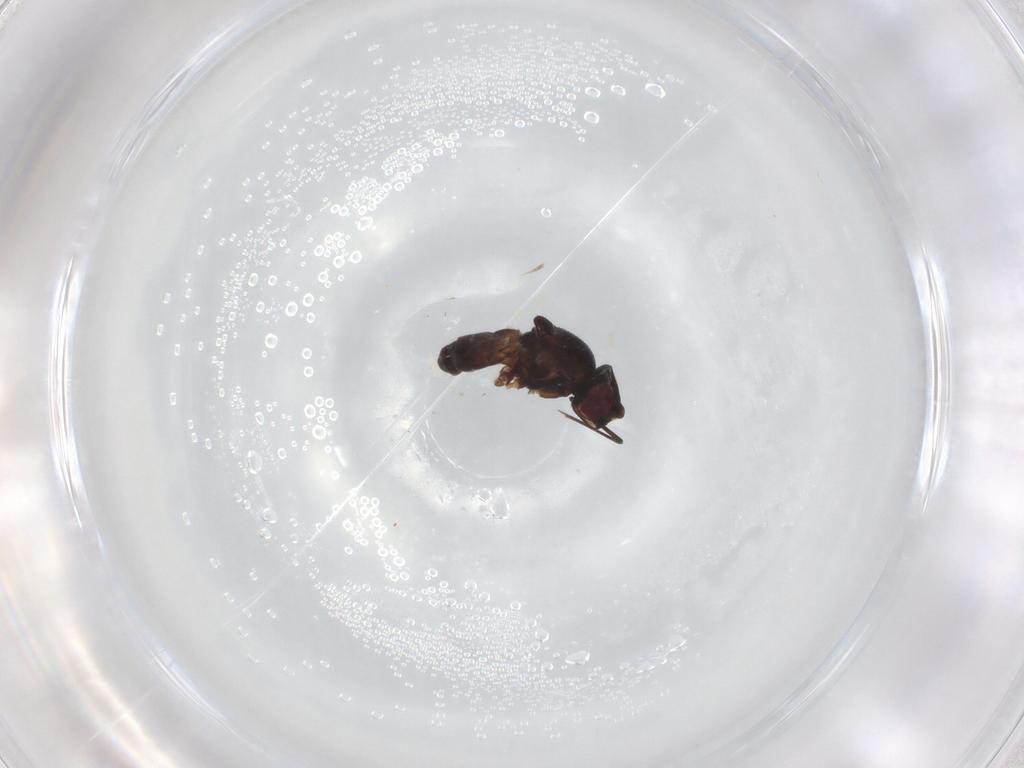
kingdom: Animalia
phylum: Arthropoda
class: Insecta
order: Diptera
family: Chloropidae
